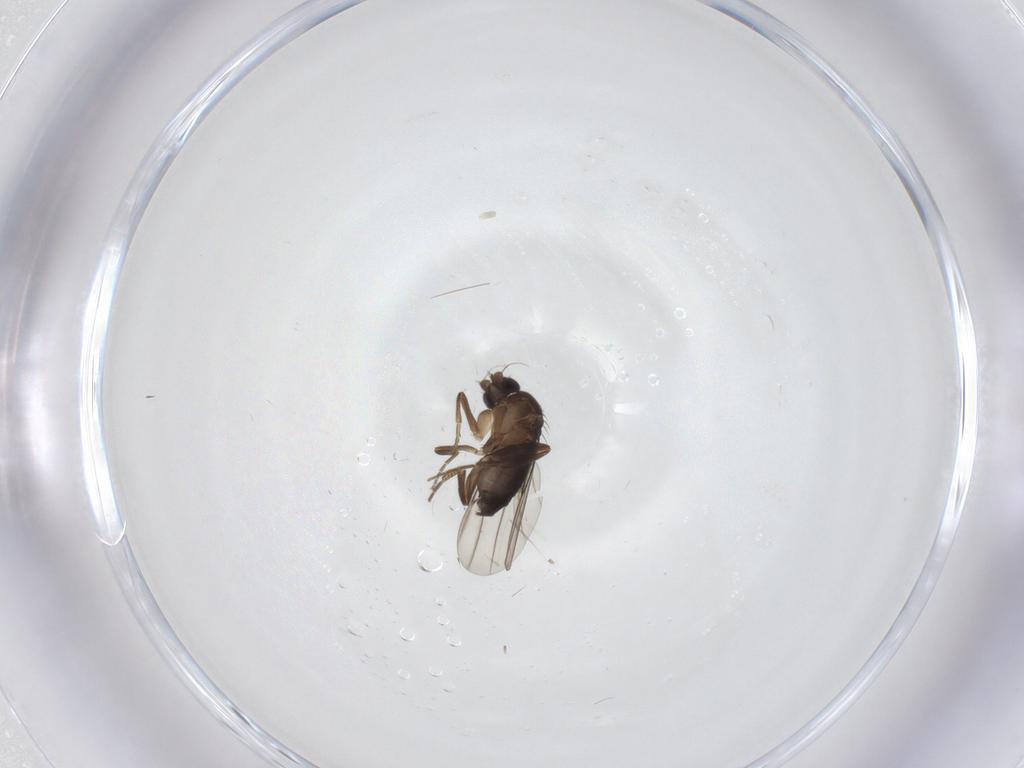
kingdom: Animalia
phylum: Arthropoda
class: Insecta
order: Diptera
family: Phoridae
